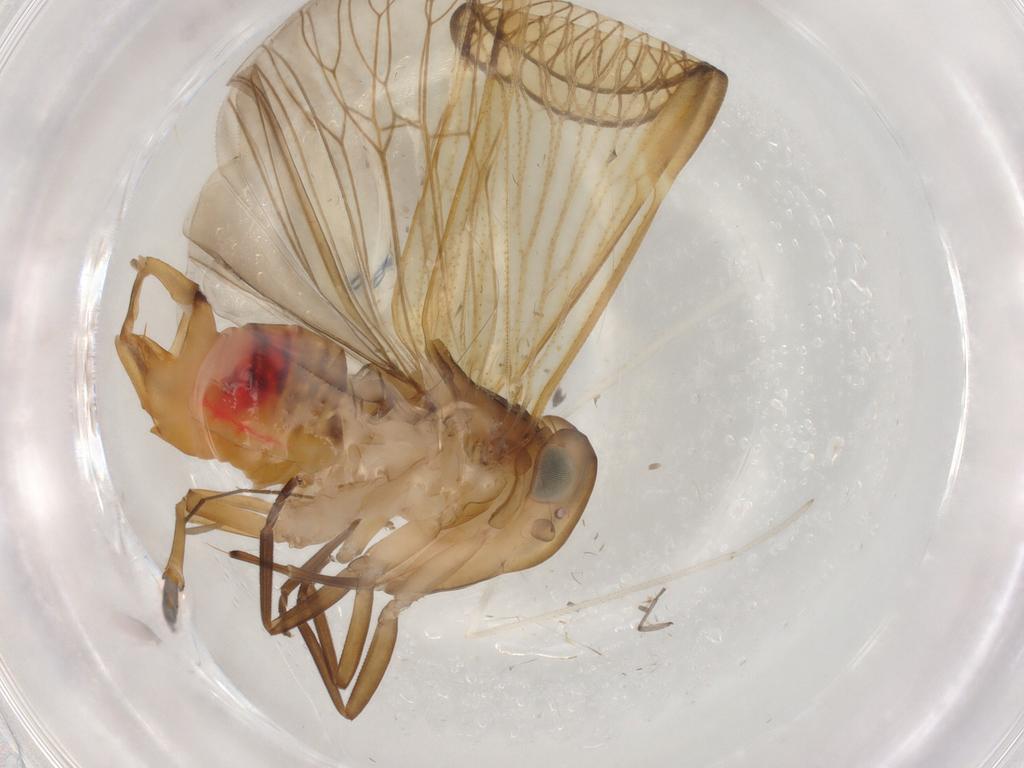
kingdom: Animalia
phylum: Arthropoda
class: Insecta
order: Hemiptera
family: Cixiidae
